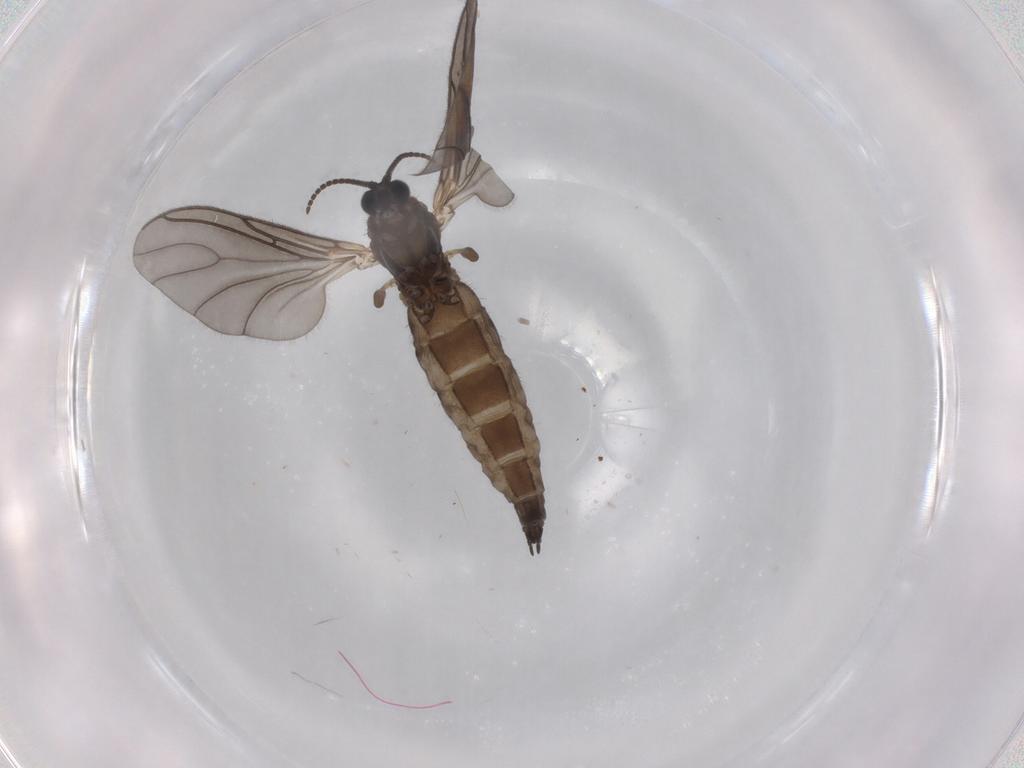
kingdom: Animalia
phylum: Arthropoda
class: Insecta
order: Diptera
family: Sciaridae
